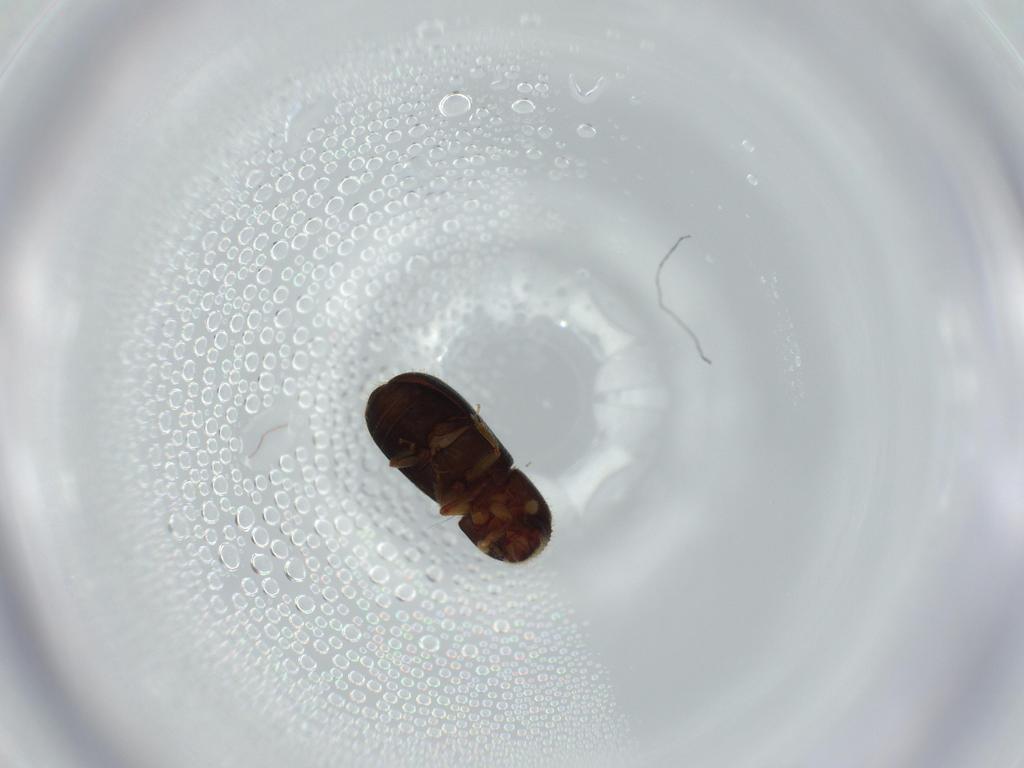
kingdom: Animalia
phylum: Arthropoda
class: Insecta
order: Coleoptera
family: Curculionidae
